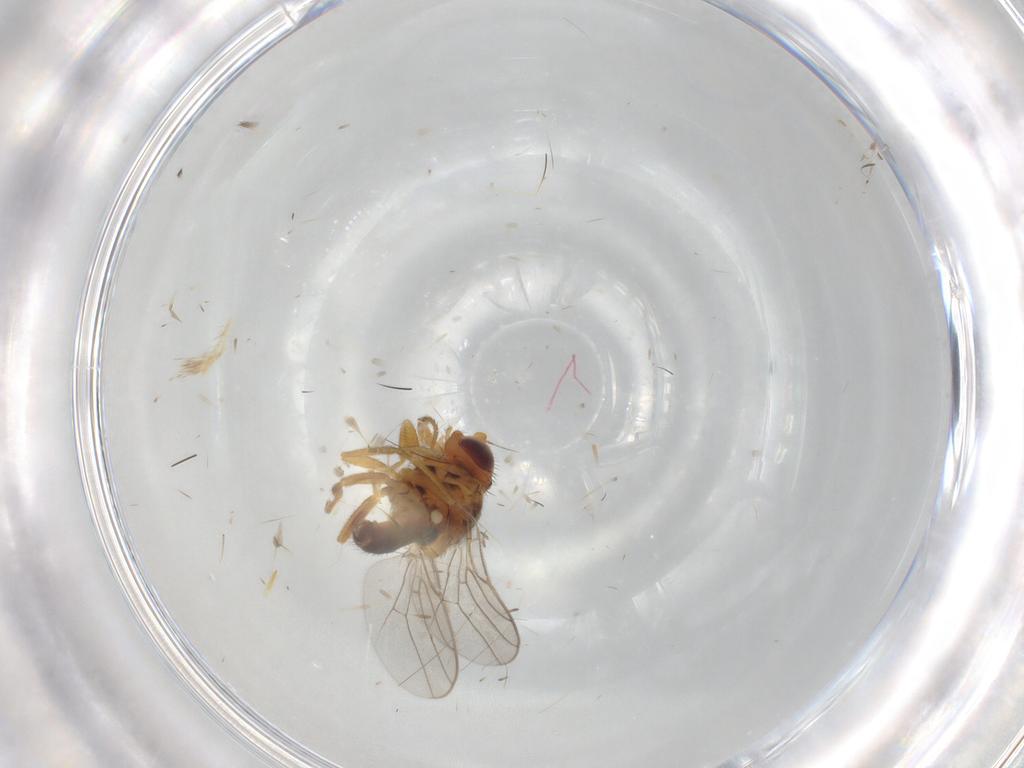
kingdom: Animalia
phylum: Arthropoda
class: Insecta
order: Diptera
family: Chloropidae
